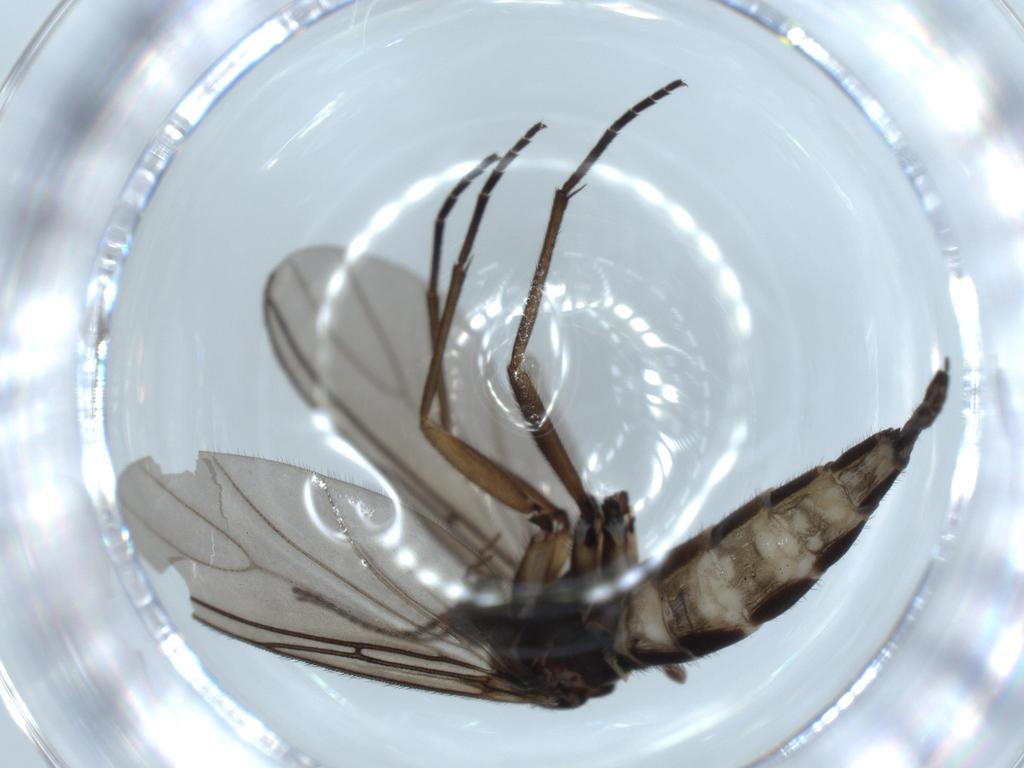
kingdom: Animalia
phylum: Arthropoda
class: Insecta
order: Diptera
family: Sciaridae
